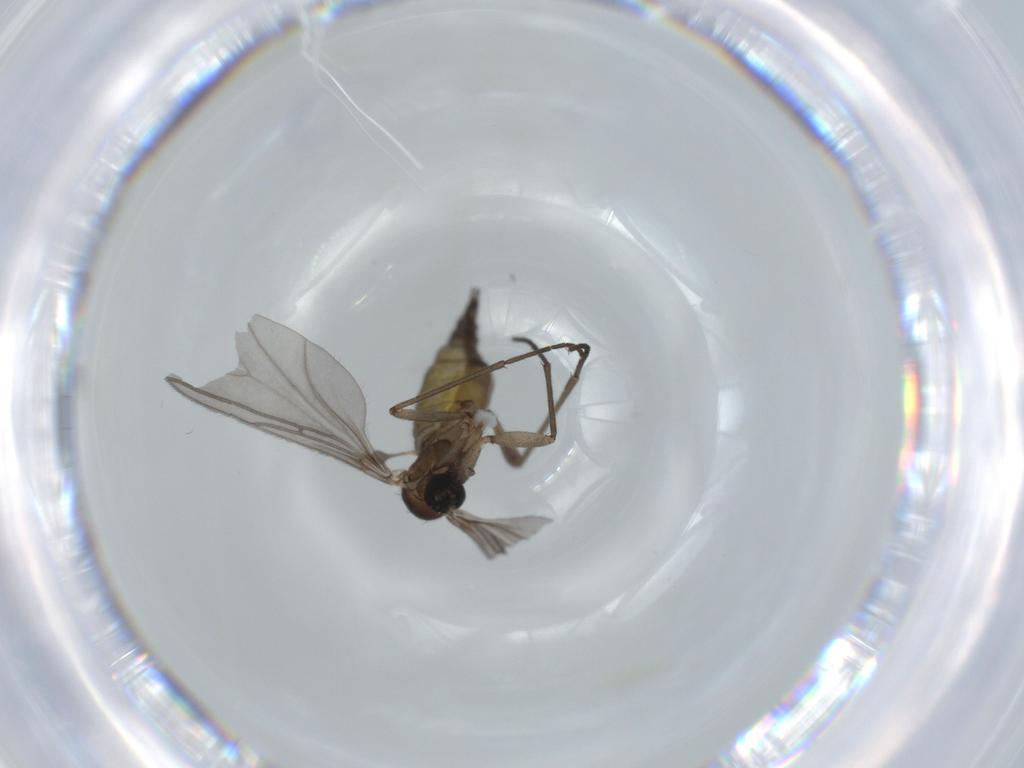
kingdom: Animalia
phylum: Arthropoda
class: Insecta
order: Diptera
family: Sciaridae
